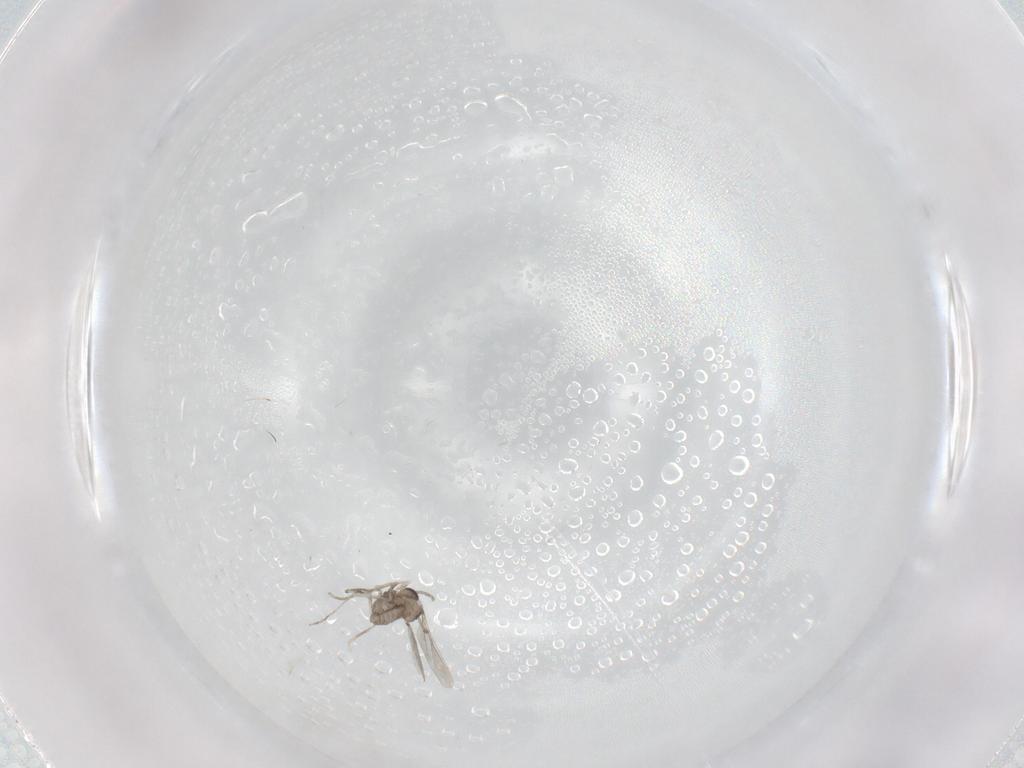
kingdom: Animalia
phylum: Arthropoda
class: Insecta
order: Diptera
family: Cecidomyiidae
